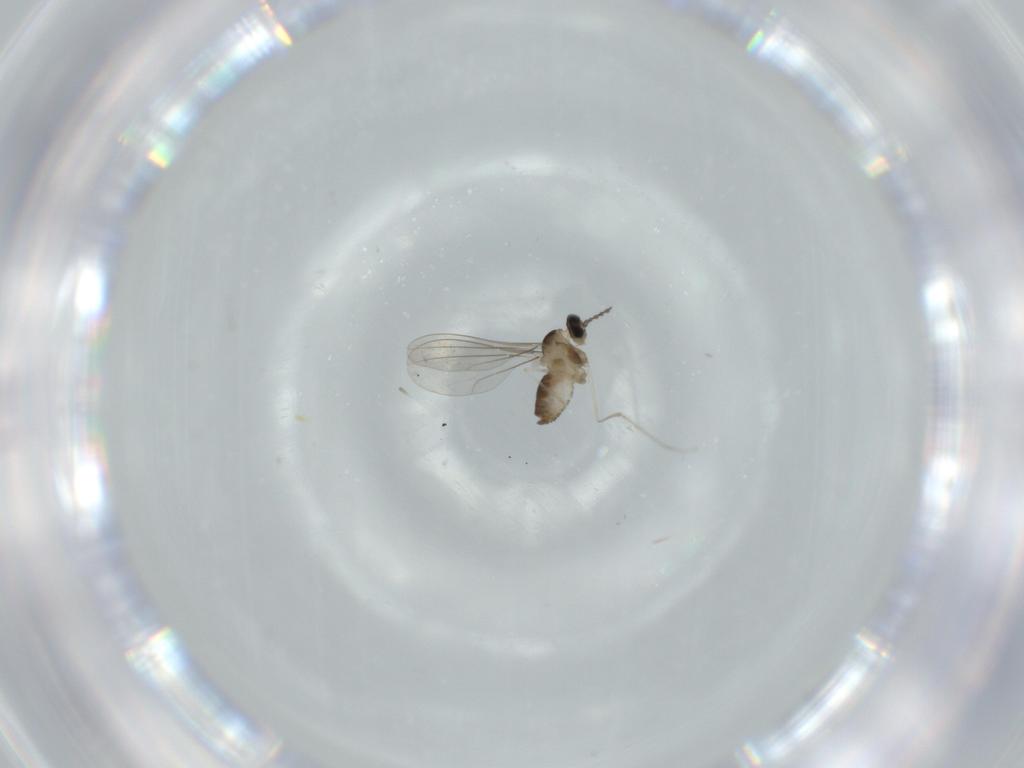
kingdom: Animalia
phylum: Arthropoda
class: Insecta
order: Diptera
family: Cecidomyiidae
